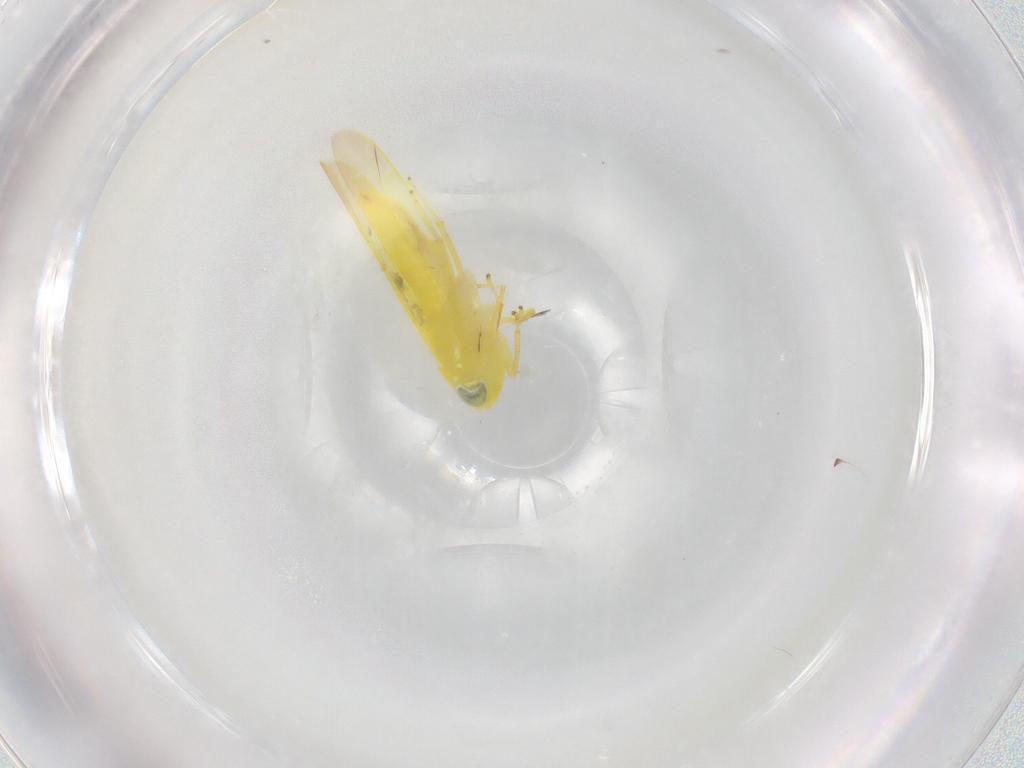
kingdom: Animalia
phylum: Arthropoda
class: Insecta
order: Hemiptera
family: Cicadellidae
